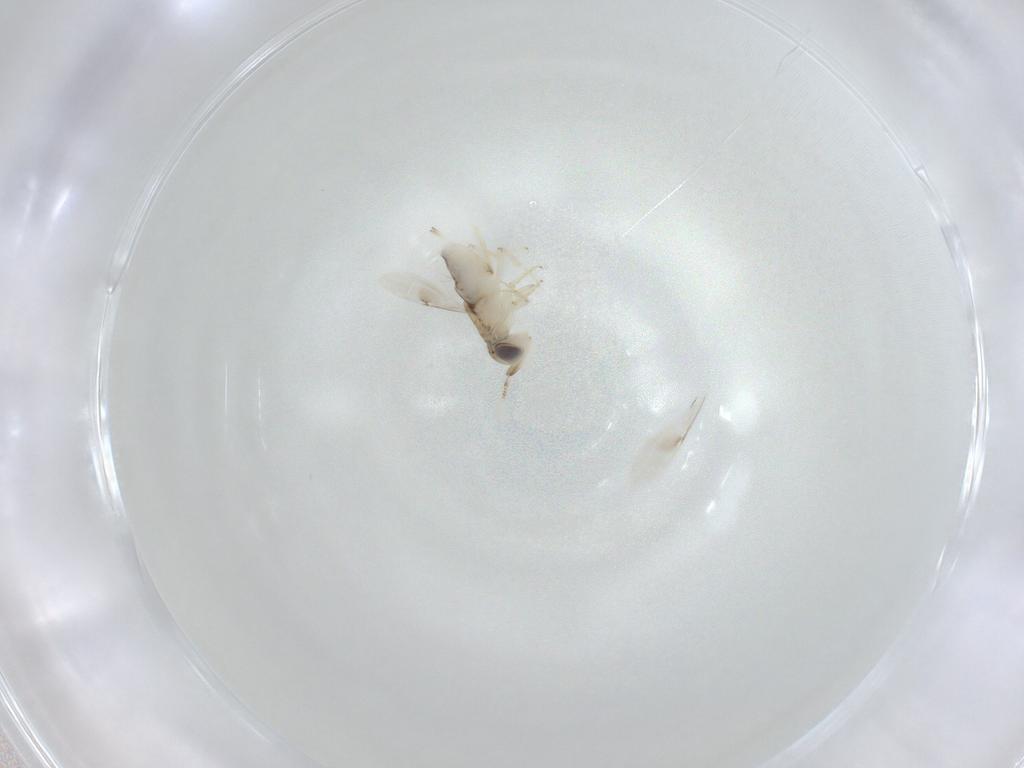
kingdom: Animalia
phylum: Arthropoda
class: Insecta
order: Hymenoptera
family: Encyrtidae
